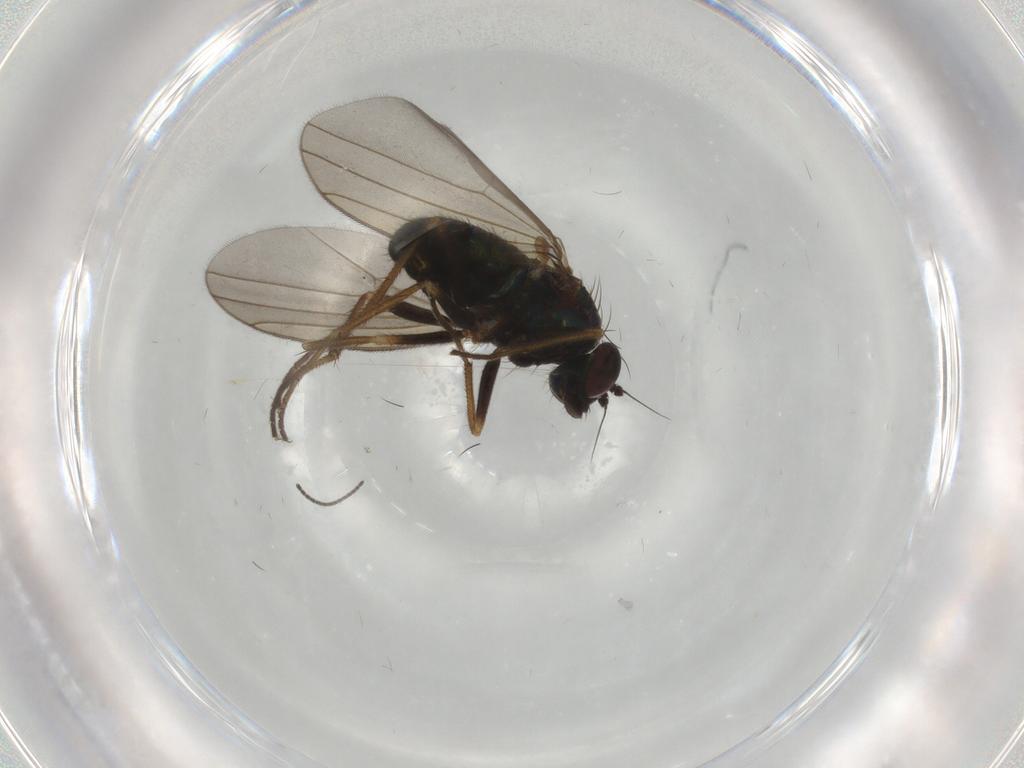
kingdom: Animalia
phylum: Arthropoda
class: Insecta
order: Diptera
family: Dolichopodidae
